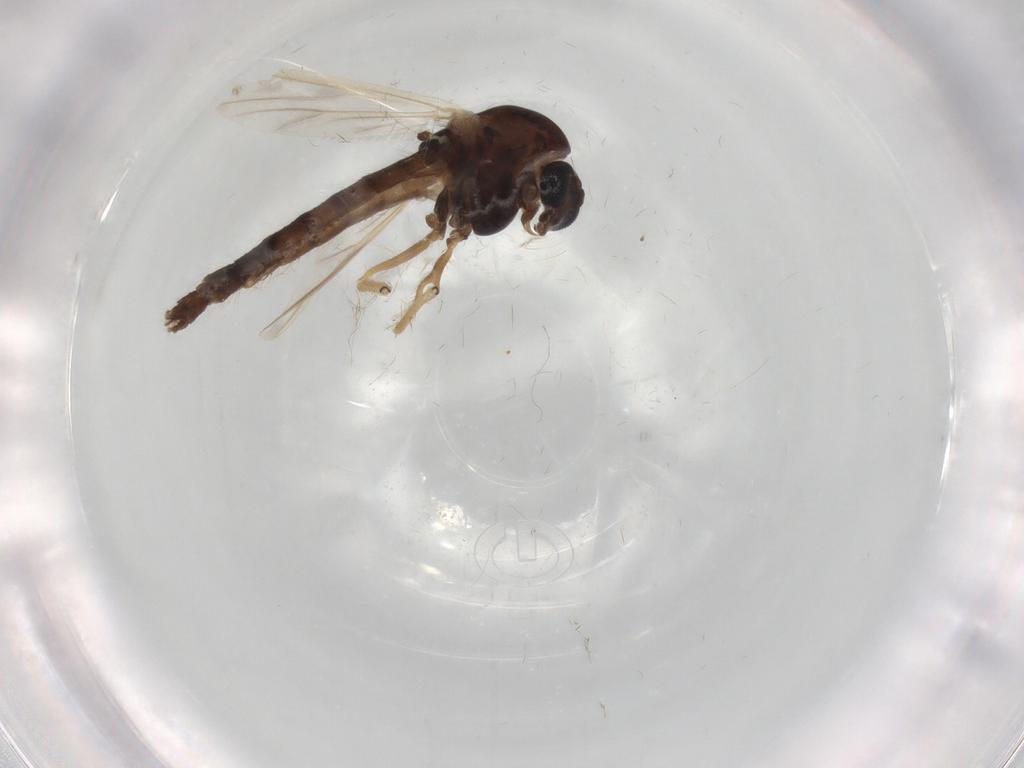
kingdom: Animalia
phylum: Arthropoda
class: Insecta
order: Diptera
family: Chironomidae
